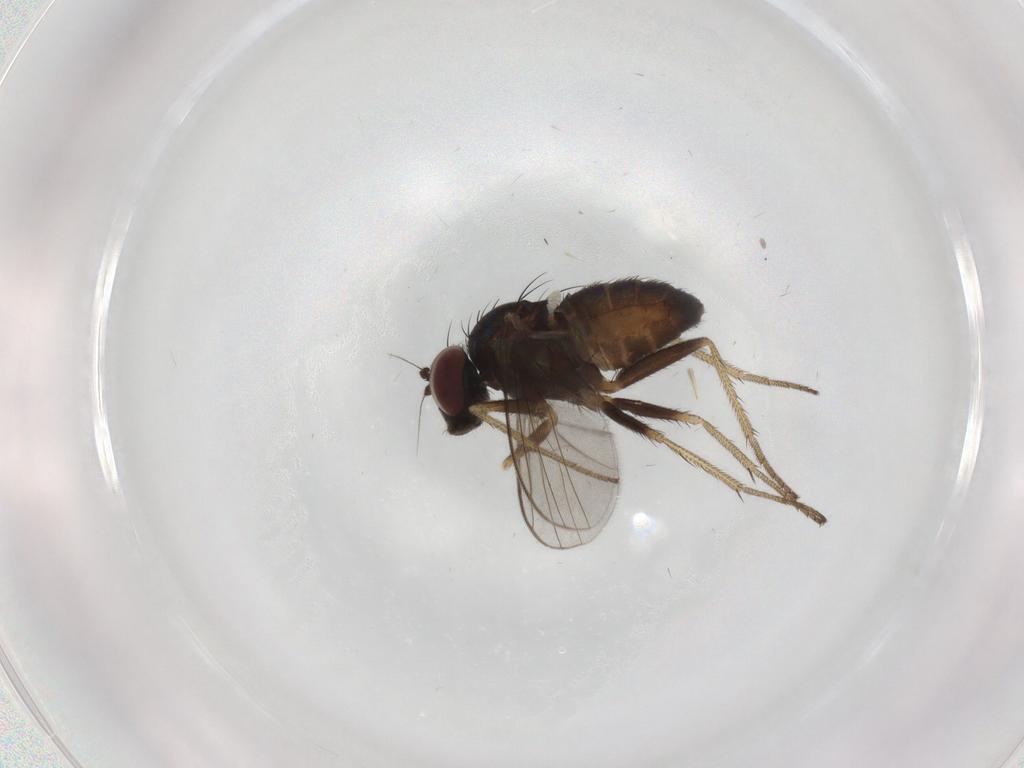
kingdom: Animalia
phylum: Arthropoda
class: Insecta
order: Diptera
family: Dolichopodidae
